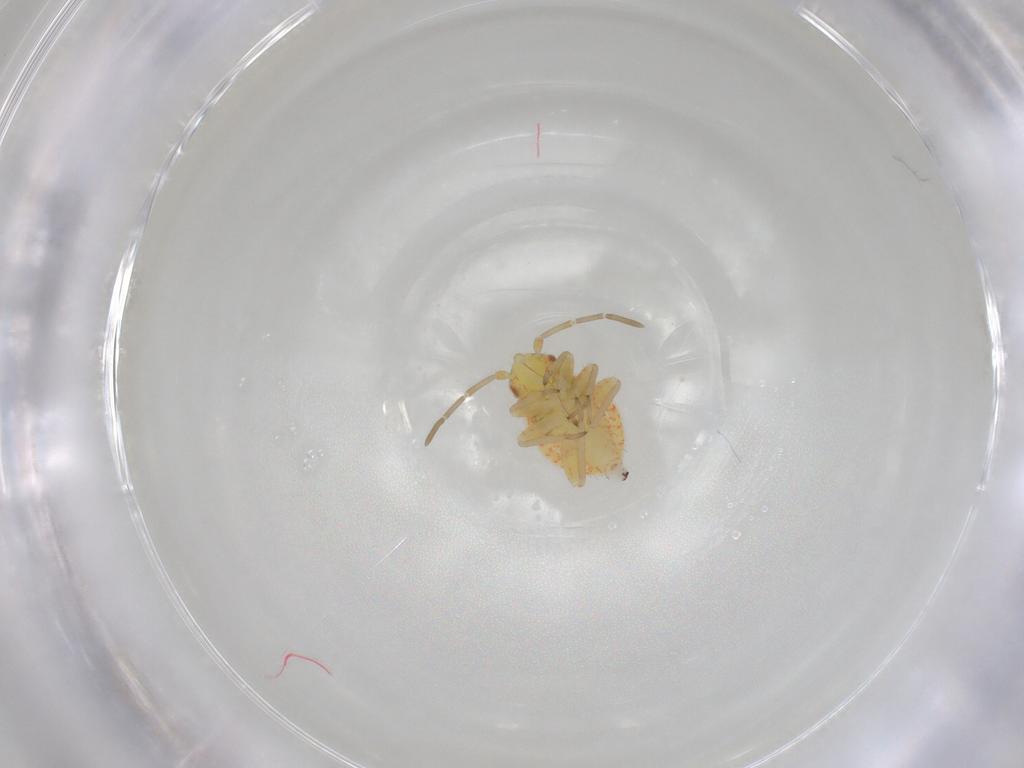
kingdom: Animalia
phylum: Arthropoda
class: Insecta
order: Hemiptera
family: Miridae
